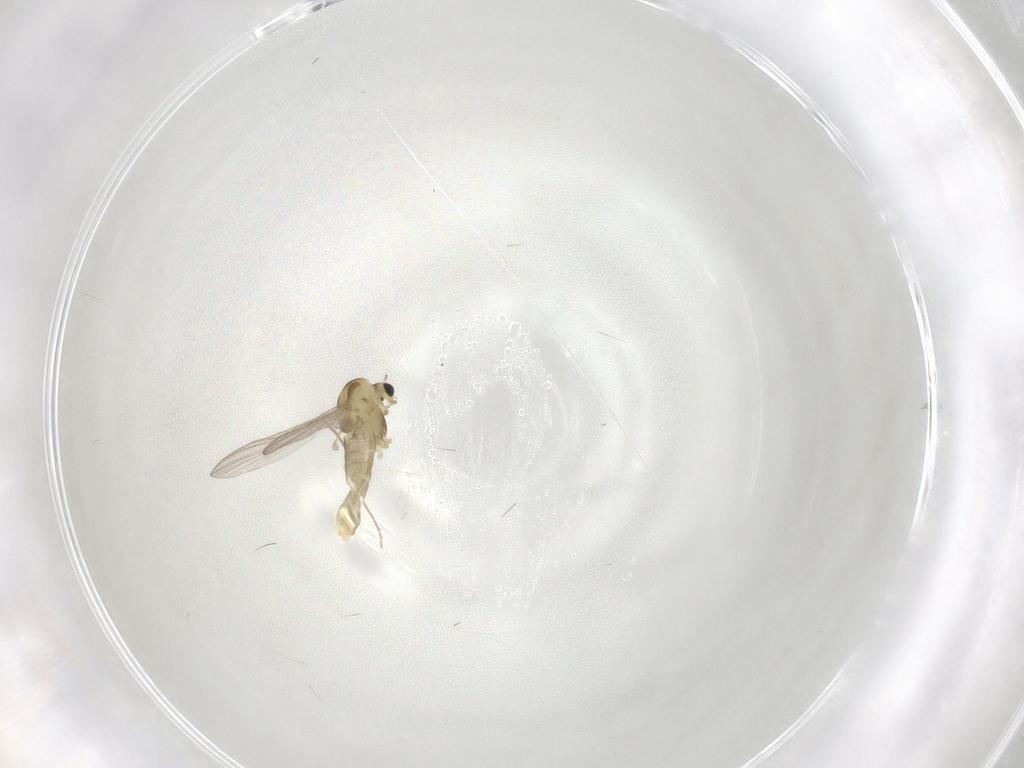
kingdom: Animalia
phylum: Arthropoda
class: Insecta
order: Diptera
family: Chironomidae
